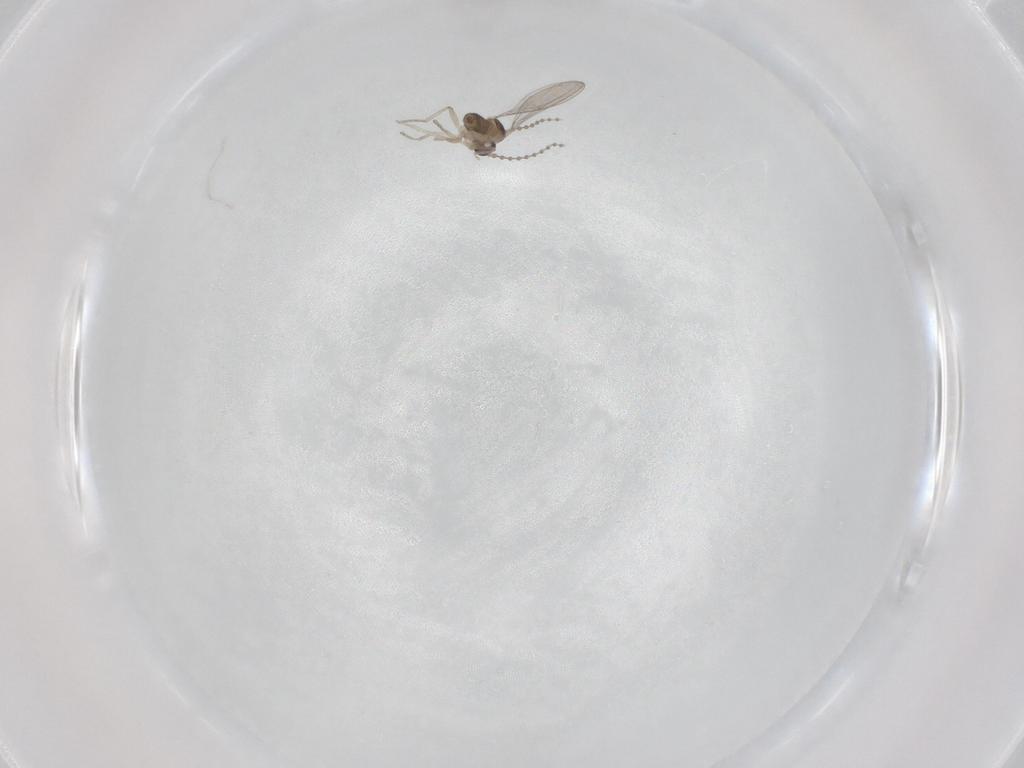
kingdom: Animalia
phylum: Arthropoda
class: Insecta
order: Diptera
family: Cecidomyiidae
